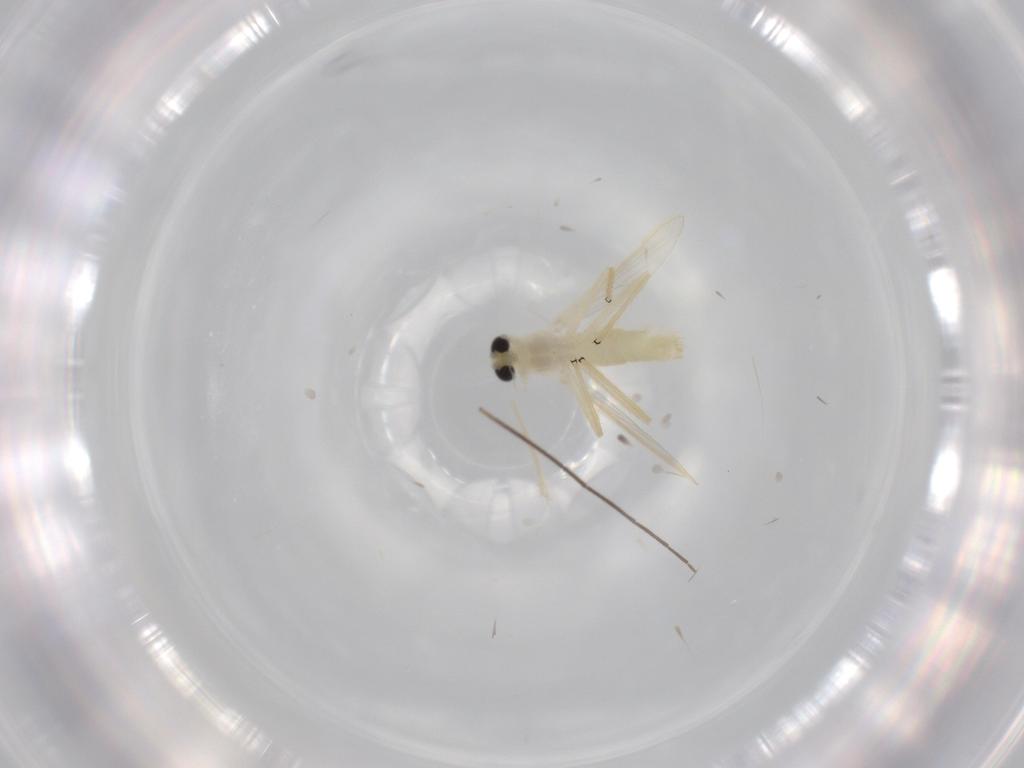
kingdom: Animalia
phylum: Arthropoda
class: Insecta
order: Diptera
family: Chironomidae
